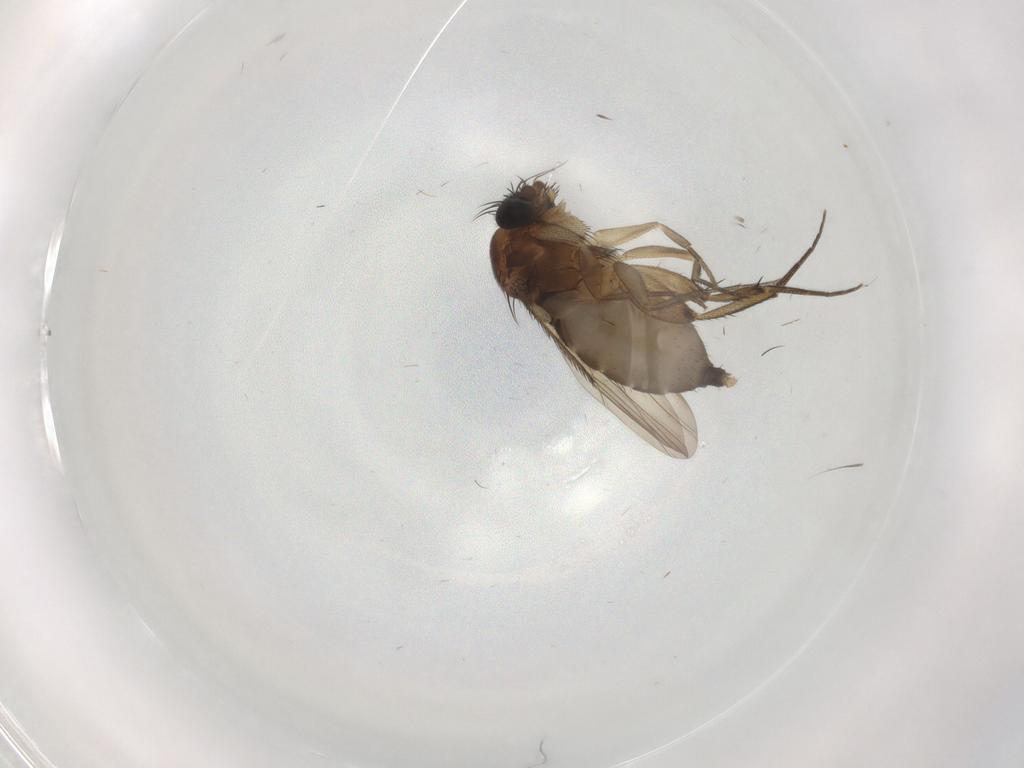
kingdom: Animalia
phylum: Arthropoda
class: Insecta
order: Diptera
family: Phoridae
